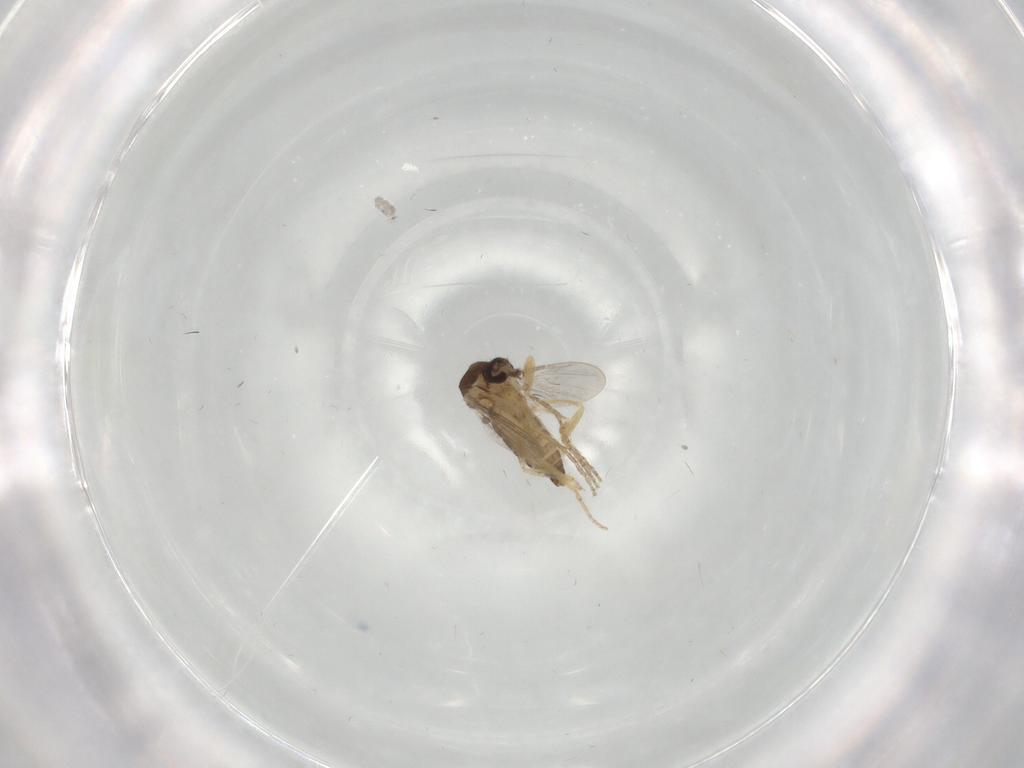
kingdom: Animalia
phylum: Arthropoda
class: Insecta
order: Diptera
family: Ceratopogonidae
